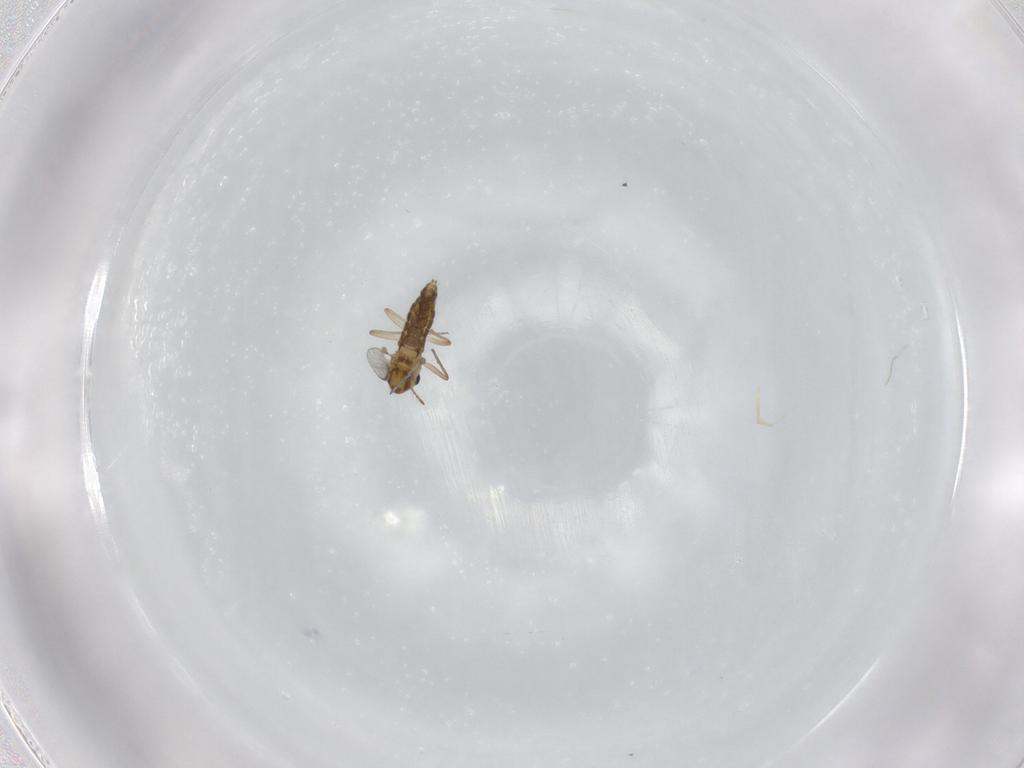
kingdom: Animalia
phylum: Arthropoda
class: Insecta
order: Diptera
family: Chironomidae
